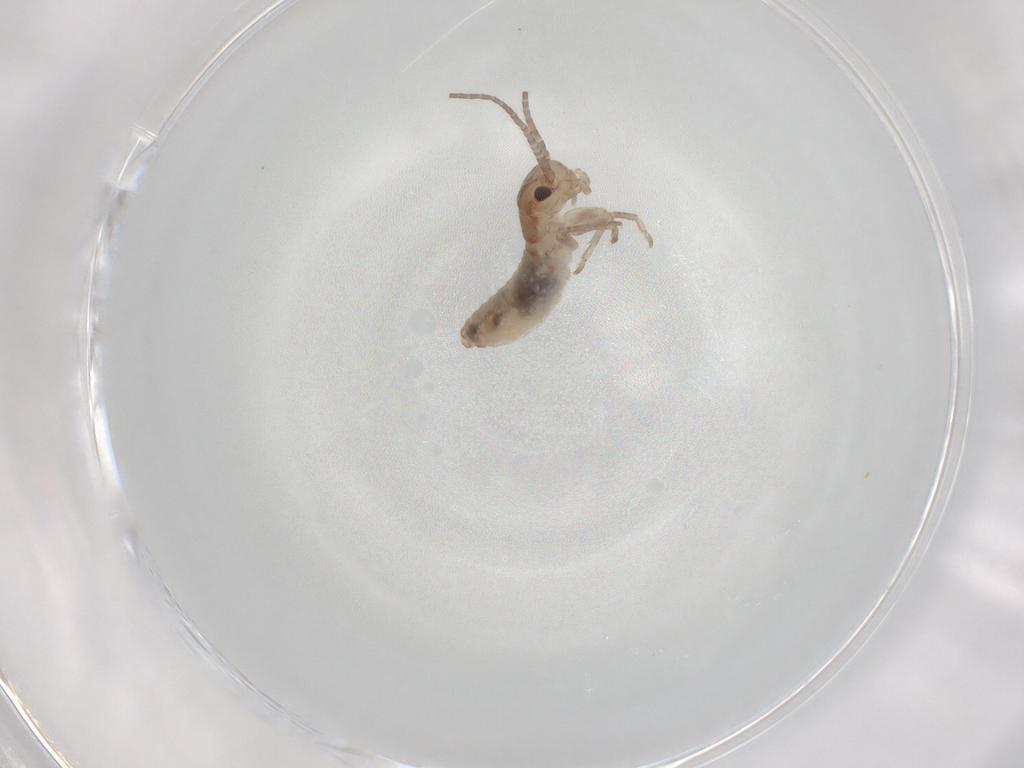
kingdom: Animalia
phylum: Arthropoda
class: Insecta
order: Orthoptera
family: Mogoplistidae
